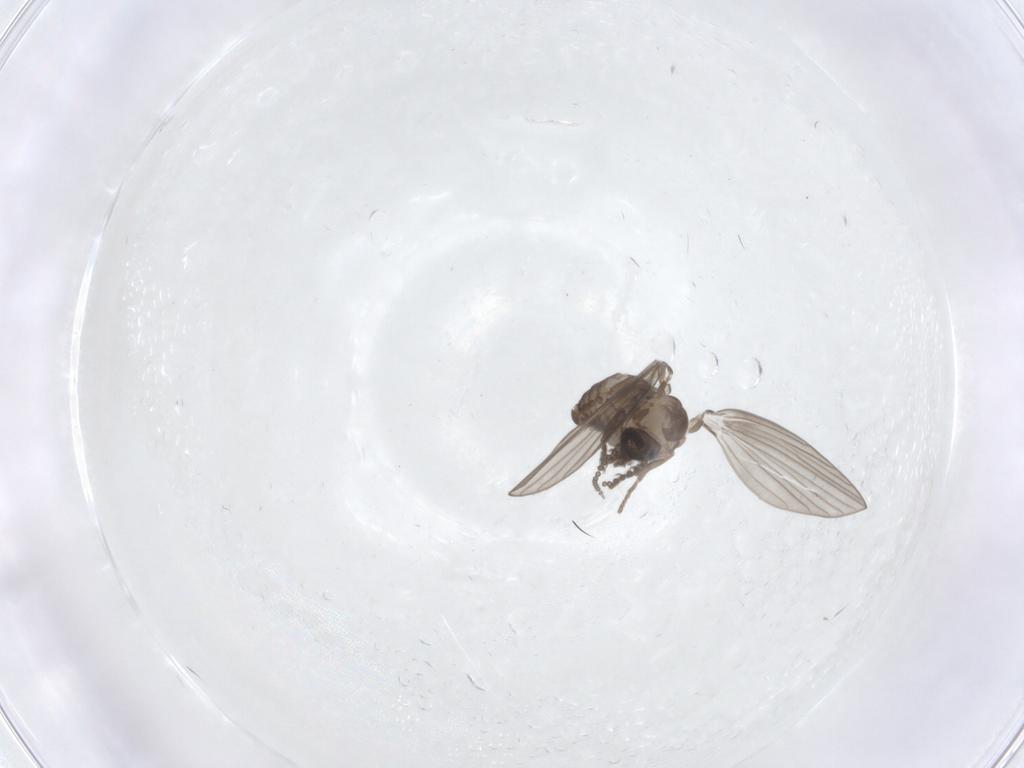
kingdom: Animalia
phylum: Arthropoda
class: Insecta
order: Diptera
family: Psychodidae
